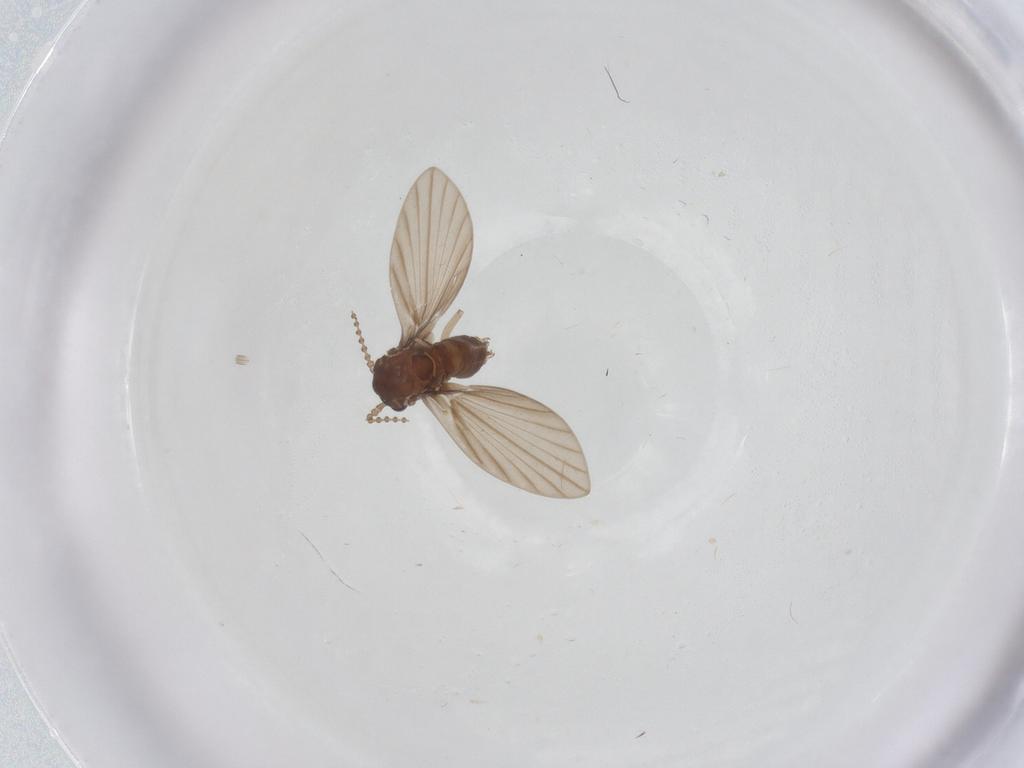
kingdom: Animalia
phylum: Arthropoda
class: Insecta
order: Diptera
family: Psychodidae
